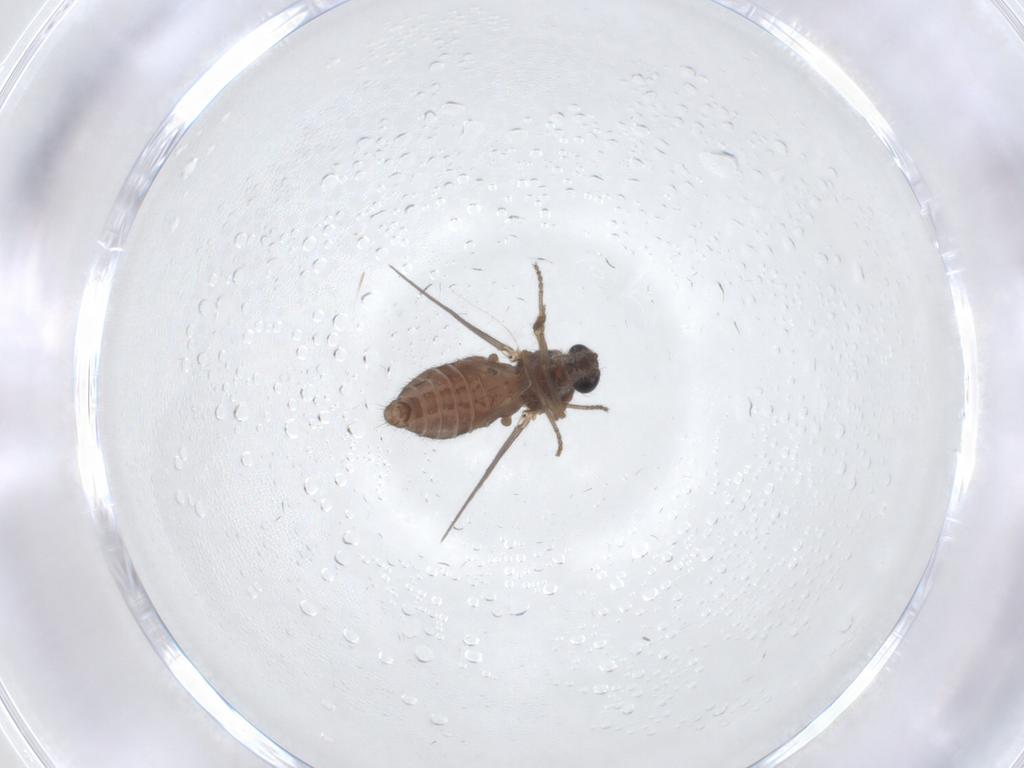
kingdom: Animalia
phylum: Arthropoda
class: Insecta
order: Diptera
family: Ceratopogonidae
